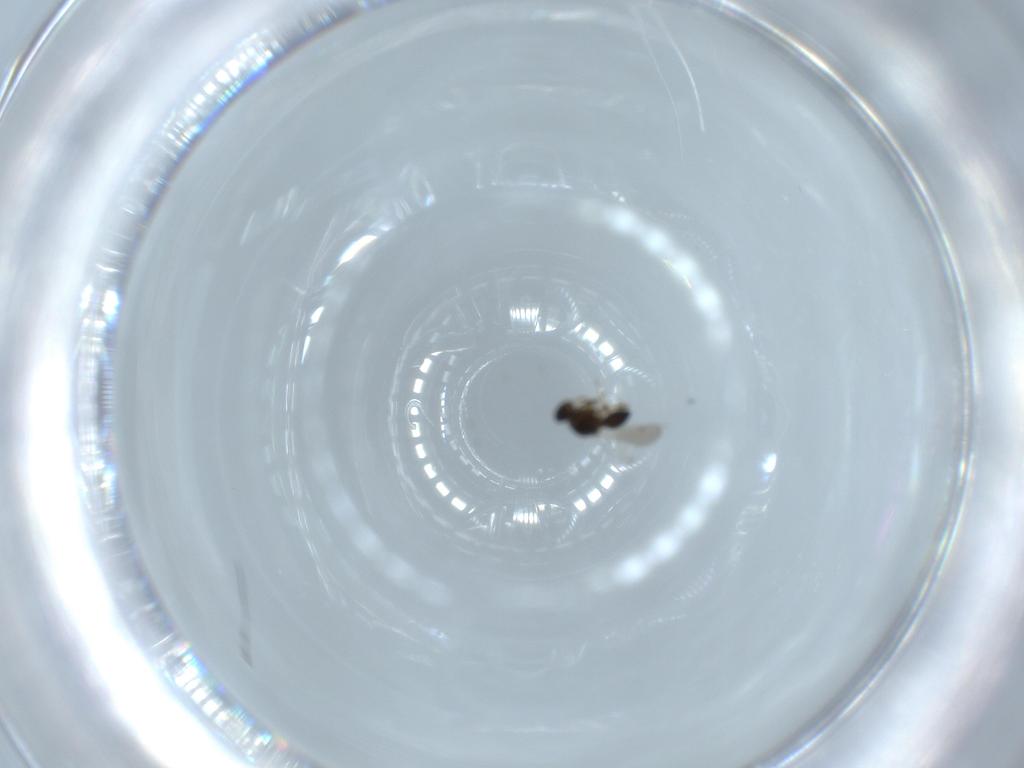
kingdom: Animalia
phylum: Arthropoda
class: Insecta
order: Hymenoptera
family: Platygastridae
